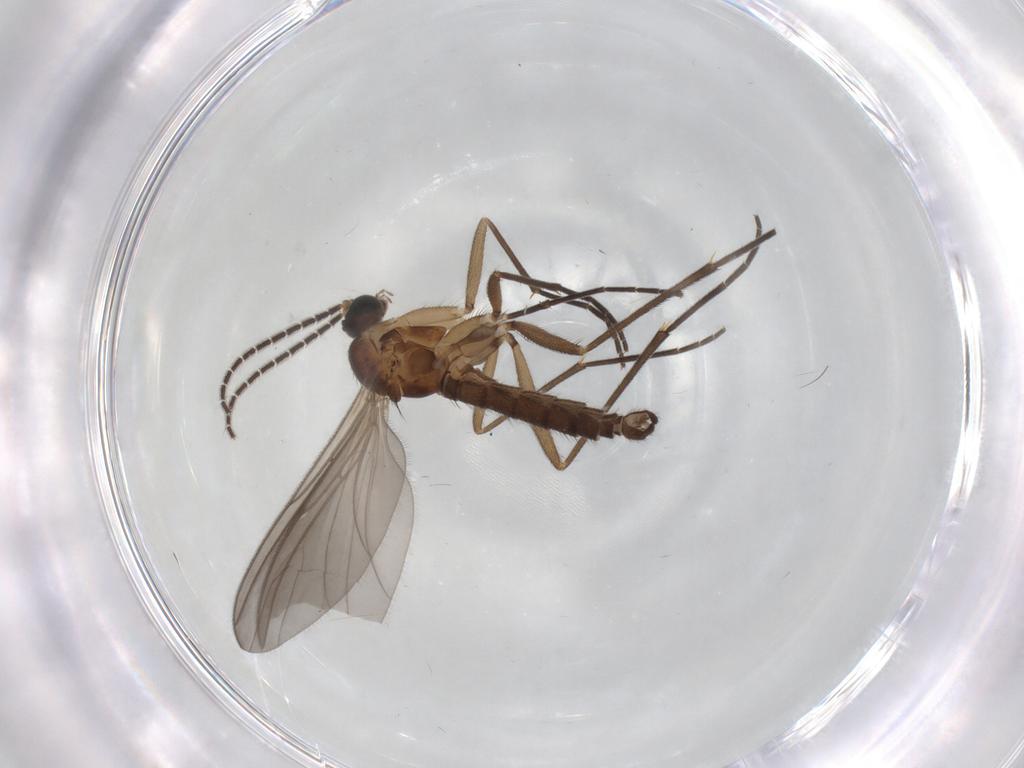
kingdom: Animalia
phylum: Arthropoda
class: Insecta
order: Diptera
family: Sciaridae
